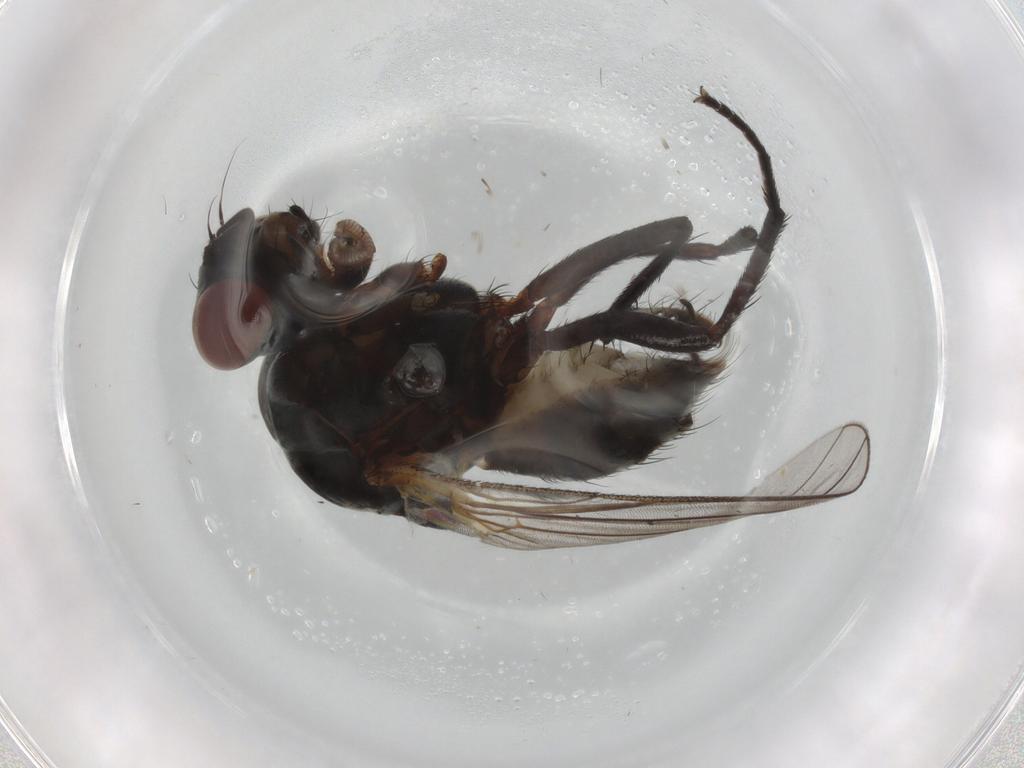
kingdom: Animalia
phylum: Arthropoda
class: Insecta
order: Diptera
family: Anthomyiidae
